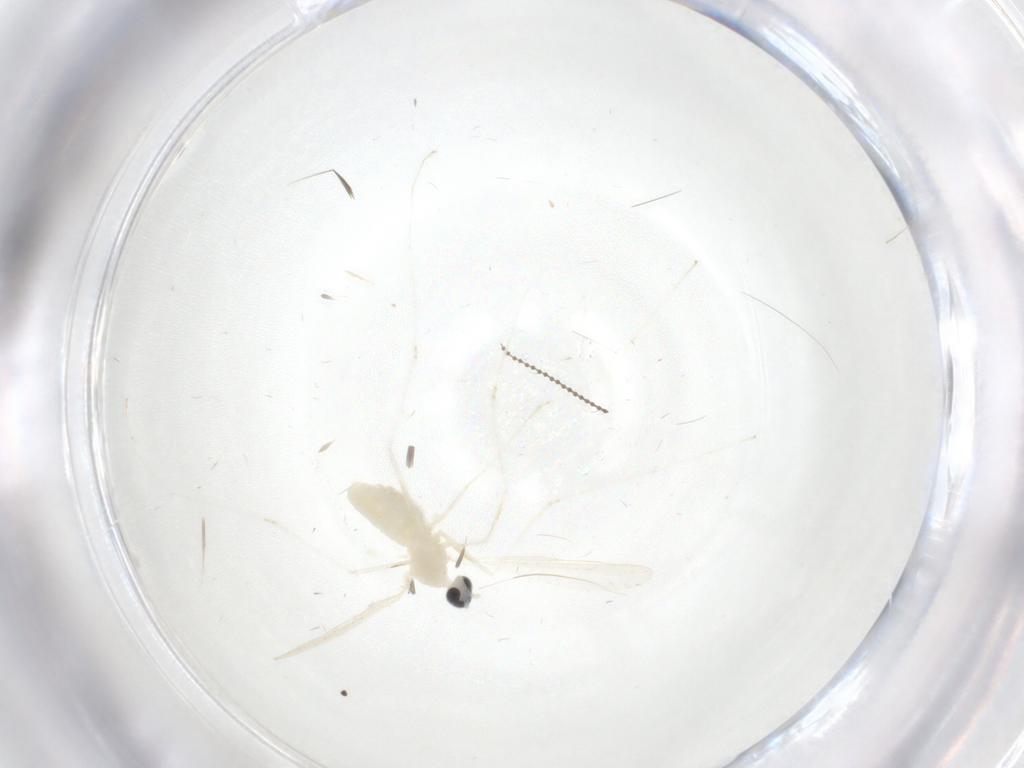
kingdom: Animalia
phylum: Arthropoda
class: Insecta
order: Diptera
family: Cecidomyiidae
